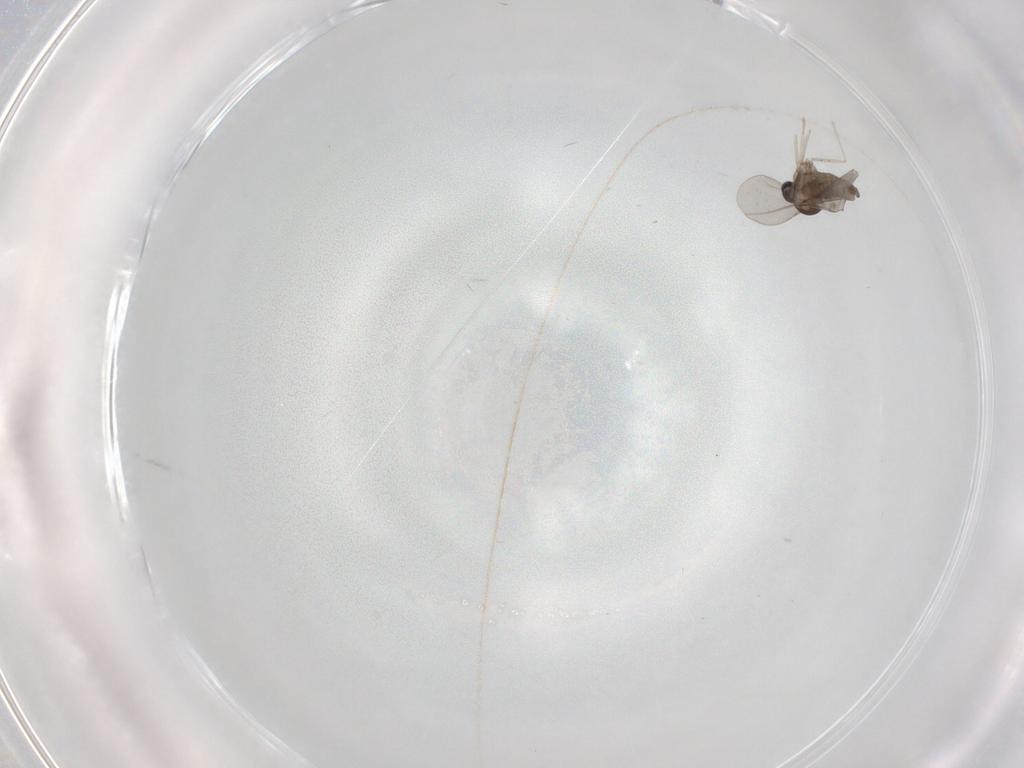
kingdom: Animalia
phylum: Arthropoda
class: Insecta
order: Diptera
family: Cecidomyiidae
